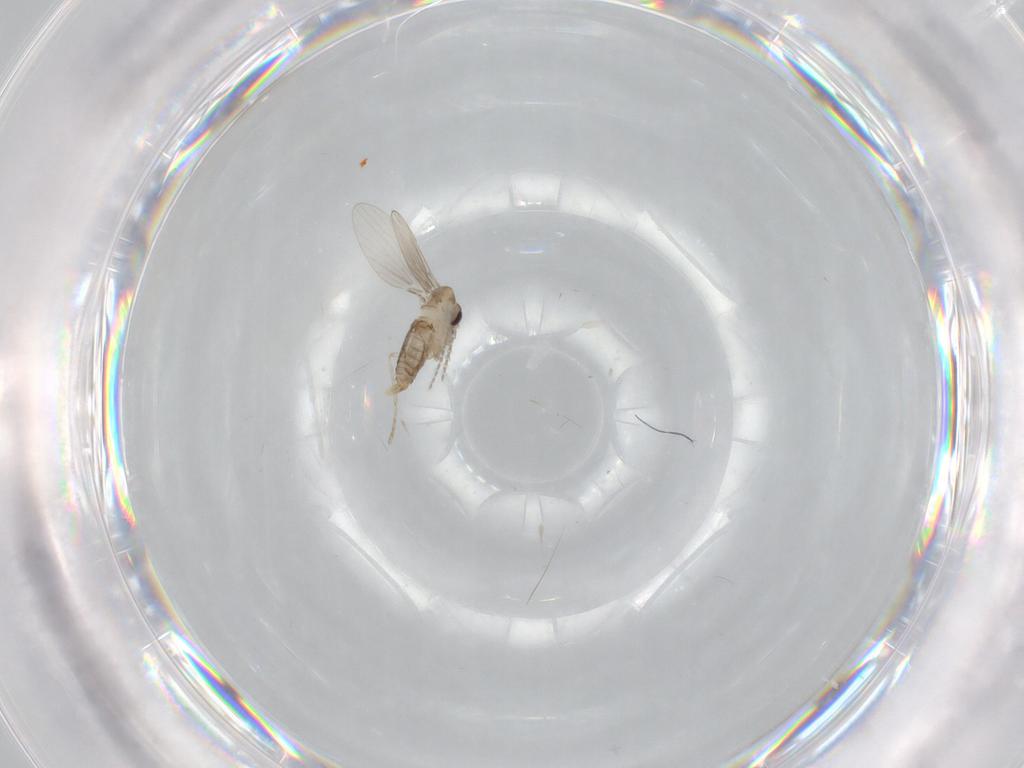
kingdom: Animalia
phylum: Arthropoda
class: Insecta
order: Diptera
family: Psychodidae
